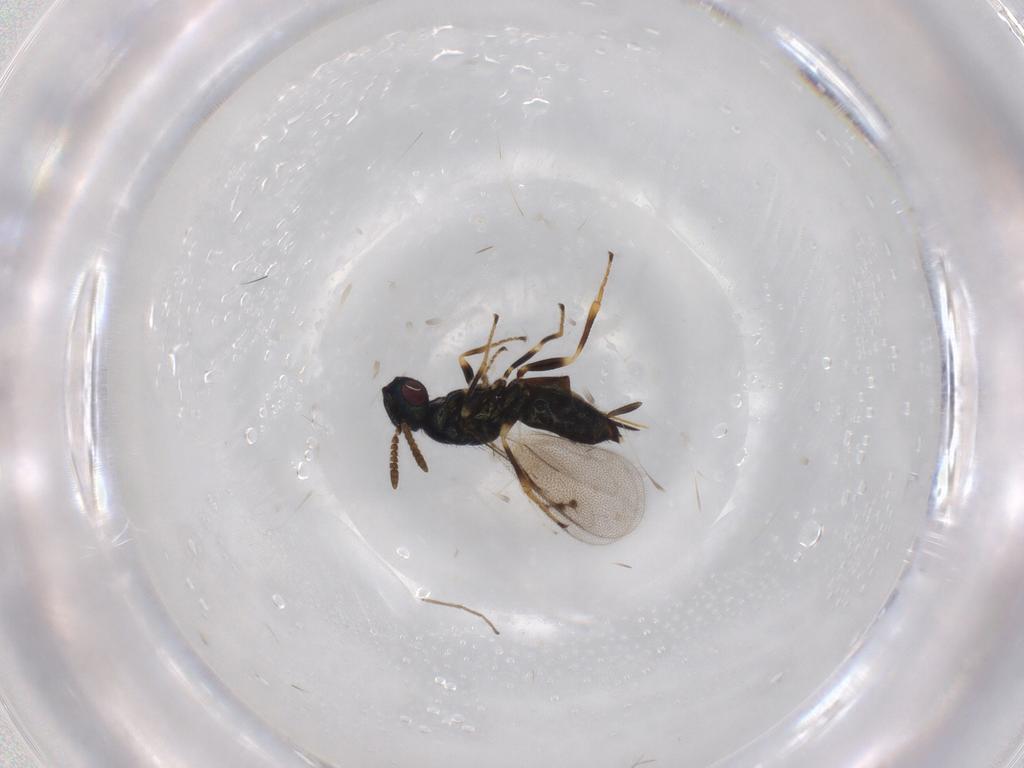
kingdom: Animalia
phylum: Arthropoda
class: Insecta
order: Hymenoptera
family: Pirenidae
